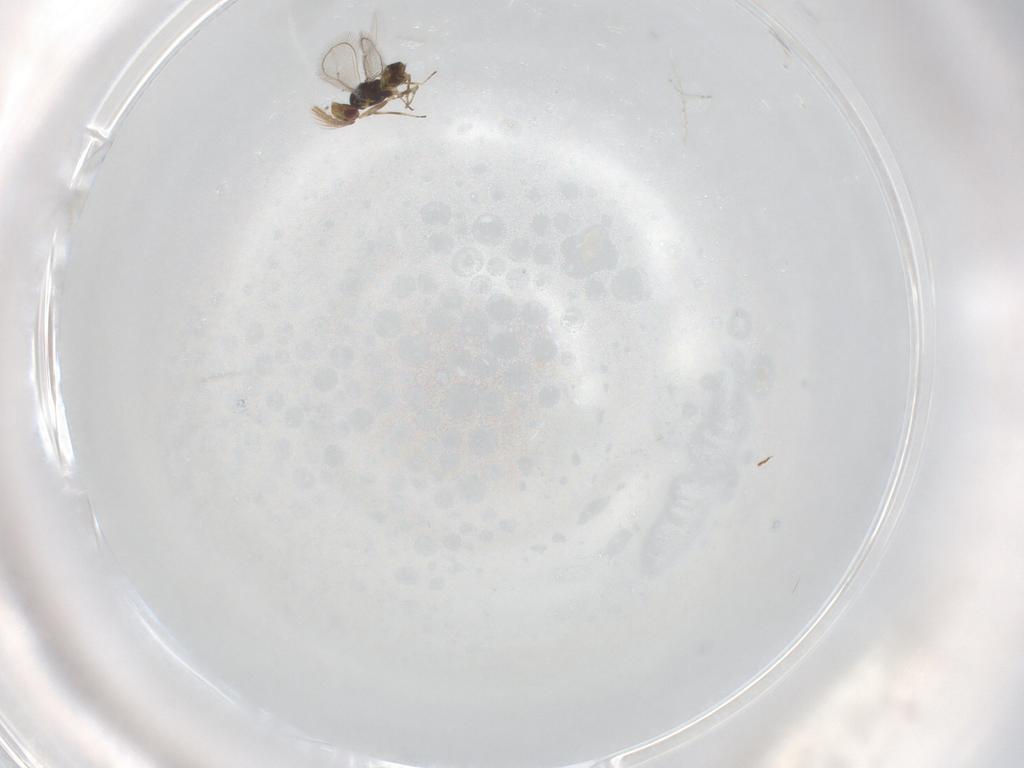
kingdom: Animalia
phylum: Arthropoda
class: Insecta
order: Hymenoptera
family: Eulophidae
